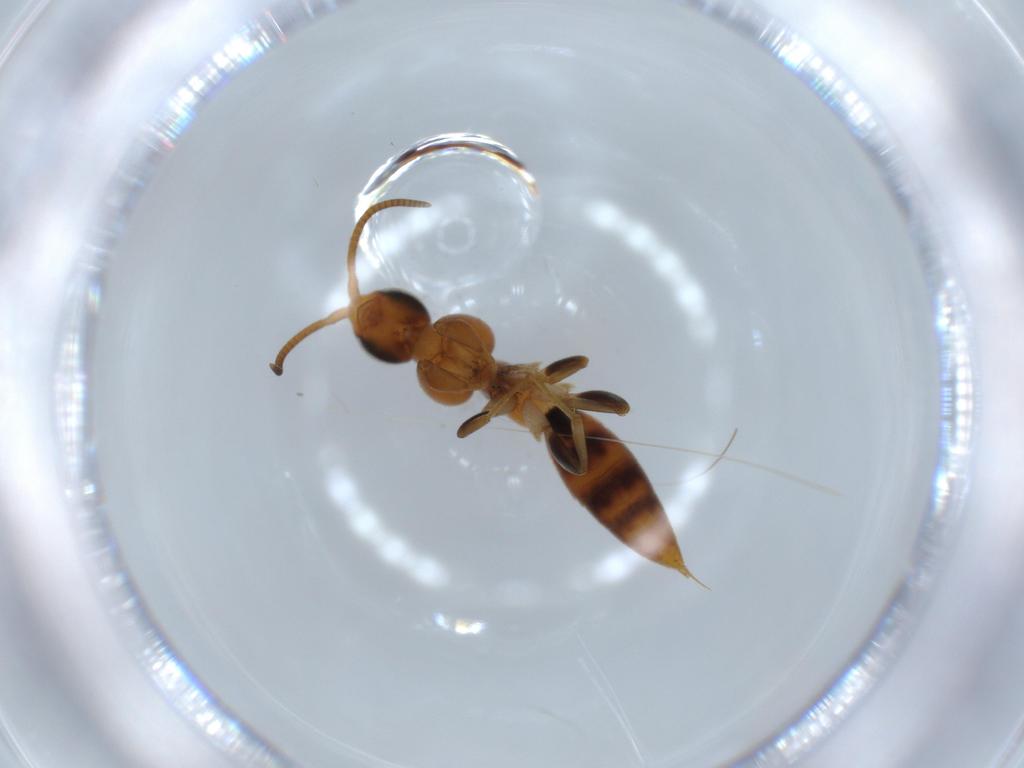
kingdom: Animalia
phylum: Arthropoda
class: Insecta
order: Hymenoptera
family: Sclerogibbidae
